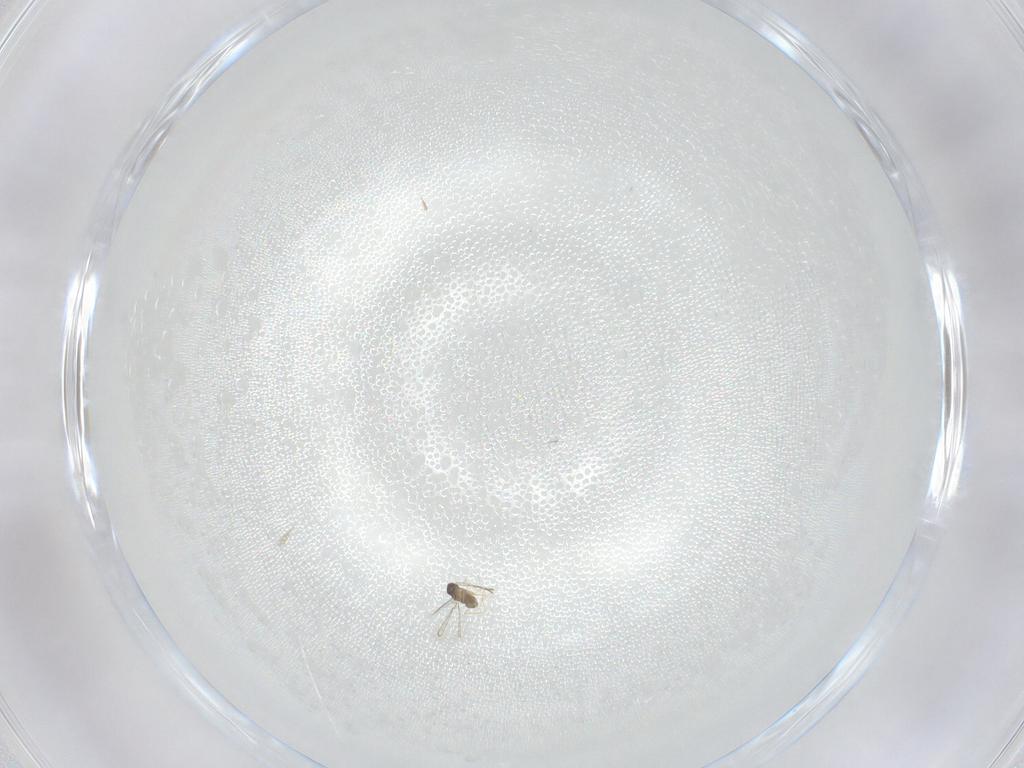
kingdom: Animalia
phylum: Arthropoda
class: Insecta
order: Hymenoptera
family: Mymaridae
